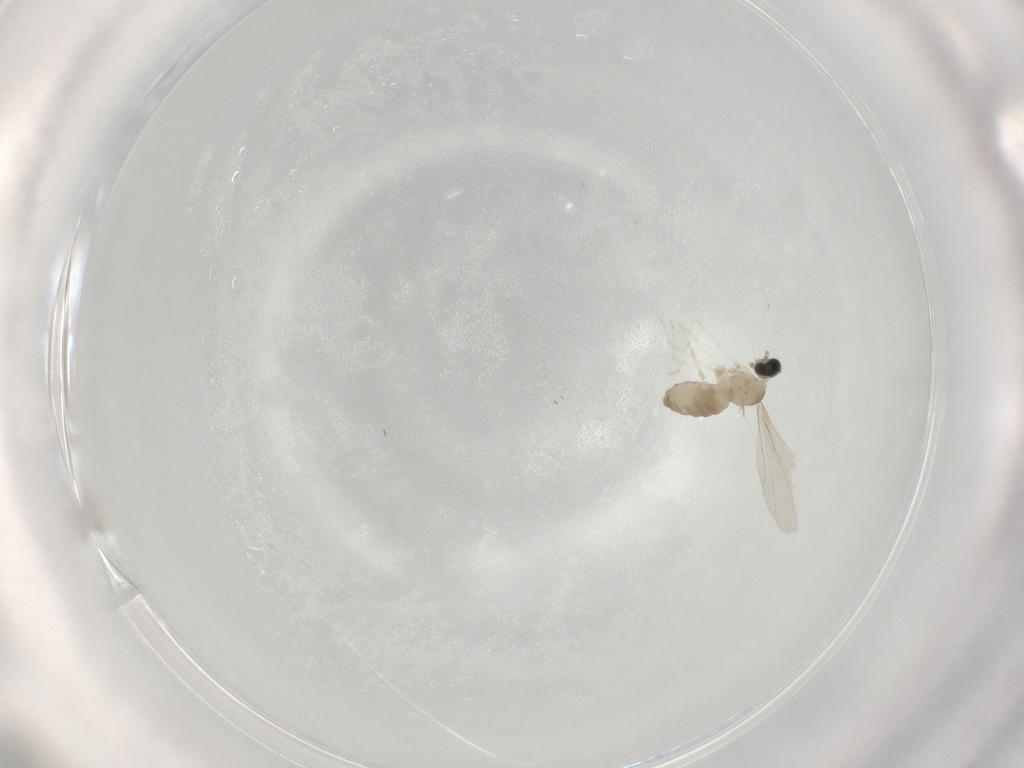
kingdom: Animalia
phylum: Arthropoda
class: Insecta
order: Diptera
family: Cecidomyiidae
